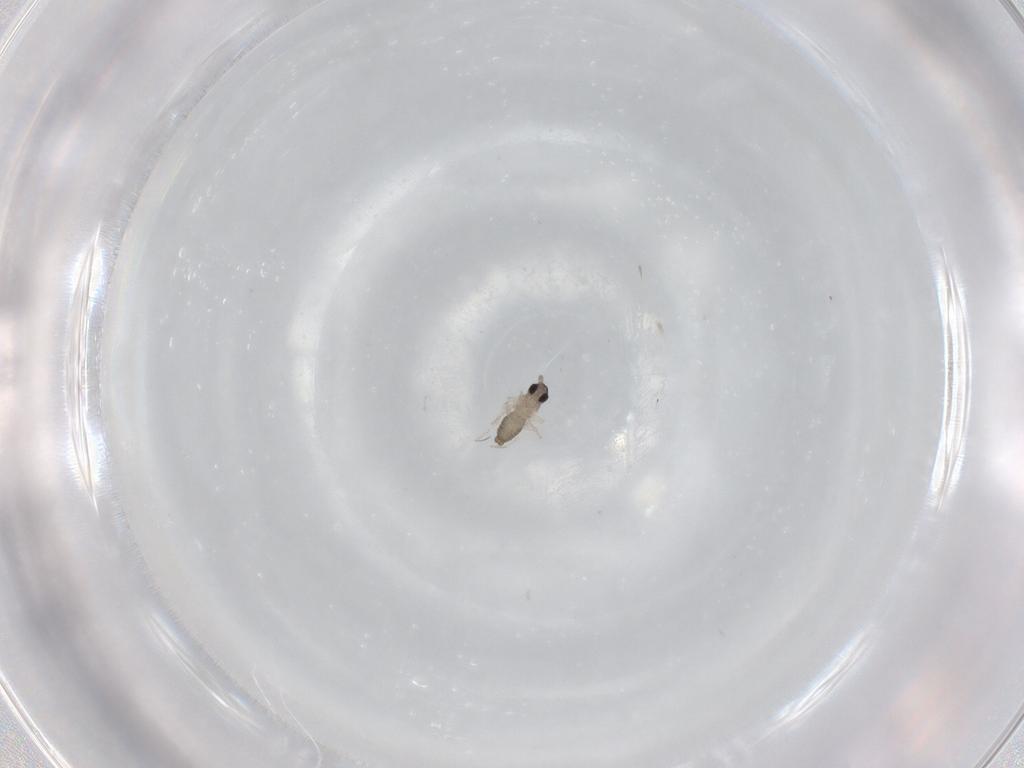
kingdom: Animalia
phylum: Arthropoda
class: Insecta
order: Diptera
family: Cecidomyiidae
